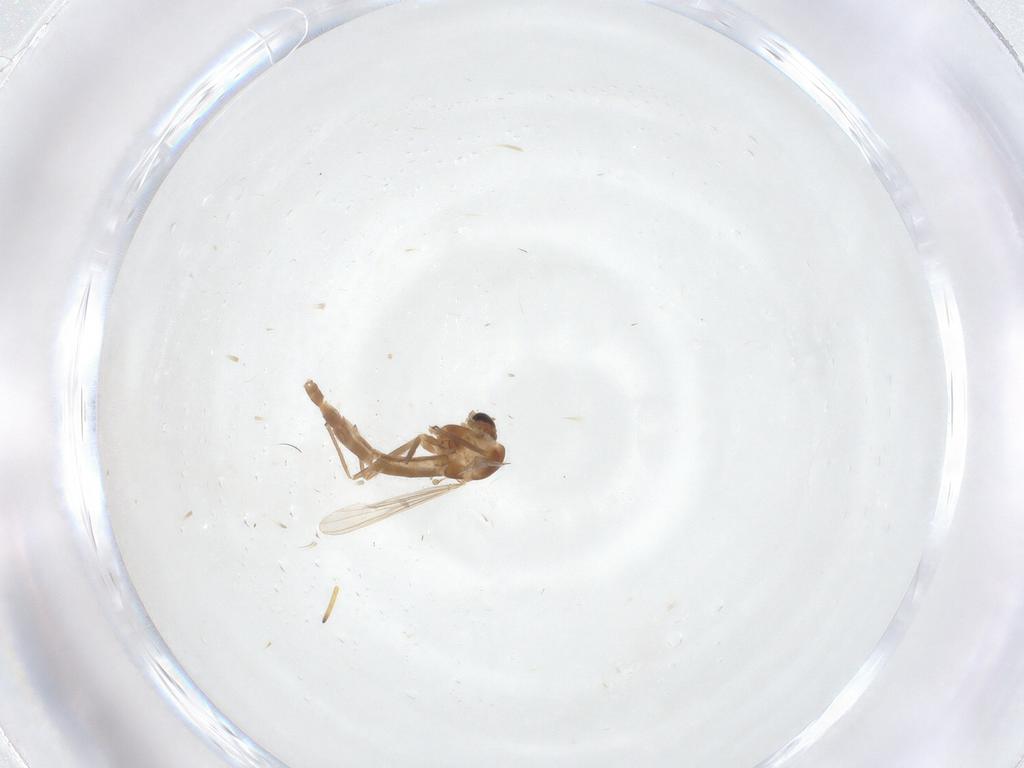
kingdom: Animalia
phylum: Arthropoda
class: Insecta
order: Diptera
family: Chironomidae
